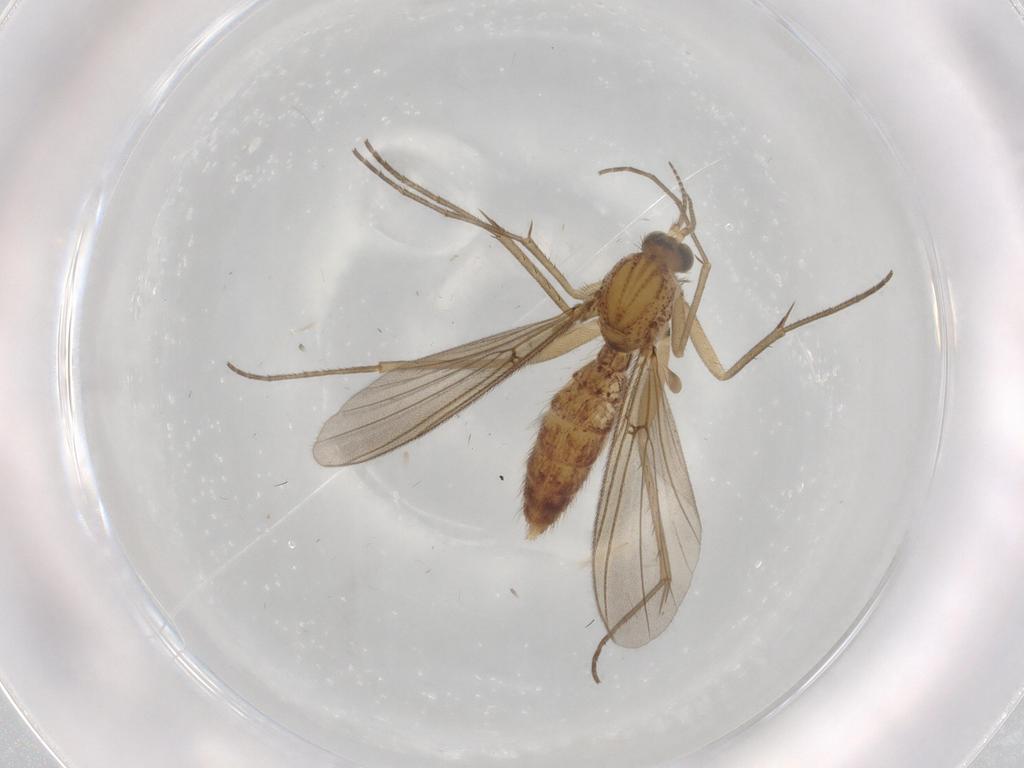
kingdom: Animalia
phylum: Arthropoda
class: Insecta
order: Diptera
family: Mycetophilidae
